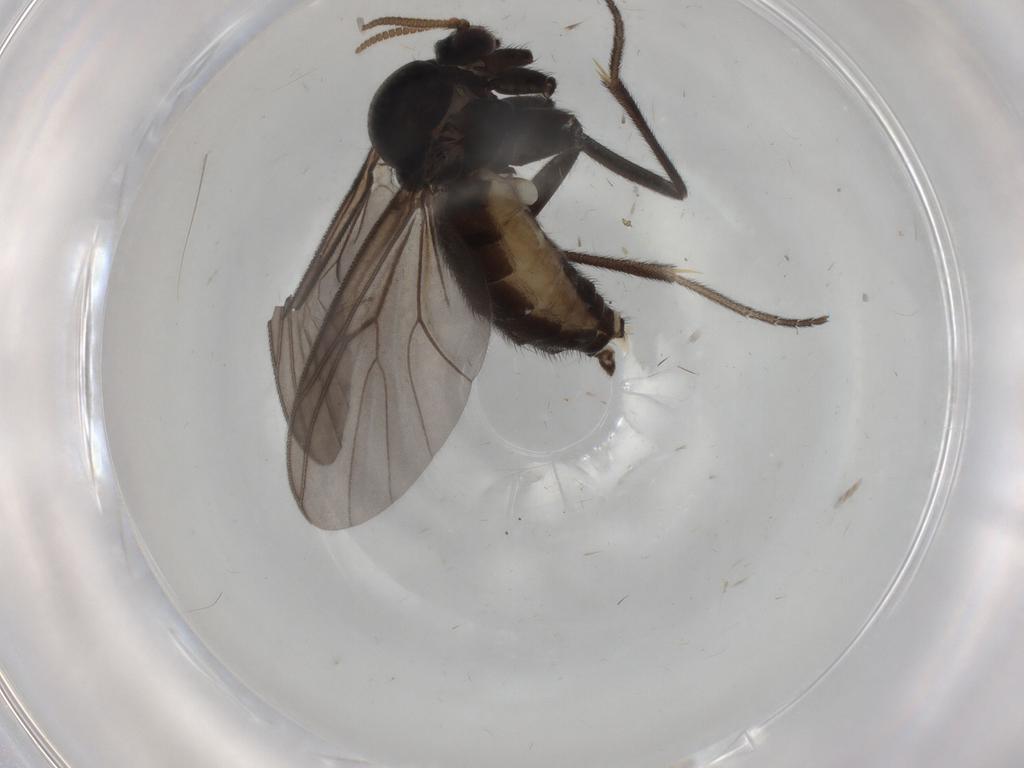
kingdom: Animalia
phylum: Arthropoda
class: Insecta
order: Diptera
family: Mycetophilidae
